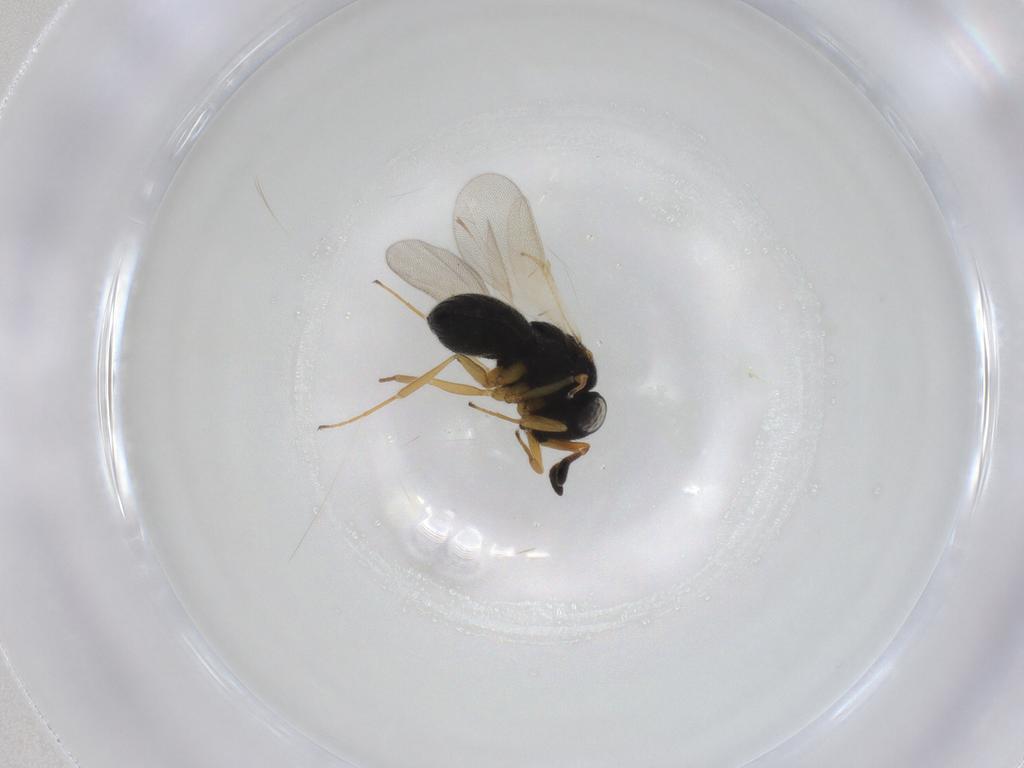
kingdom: Animalia
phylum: Arthropoda
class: Insecta
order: Hymenoptera
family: Scelionidae
